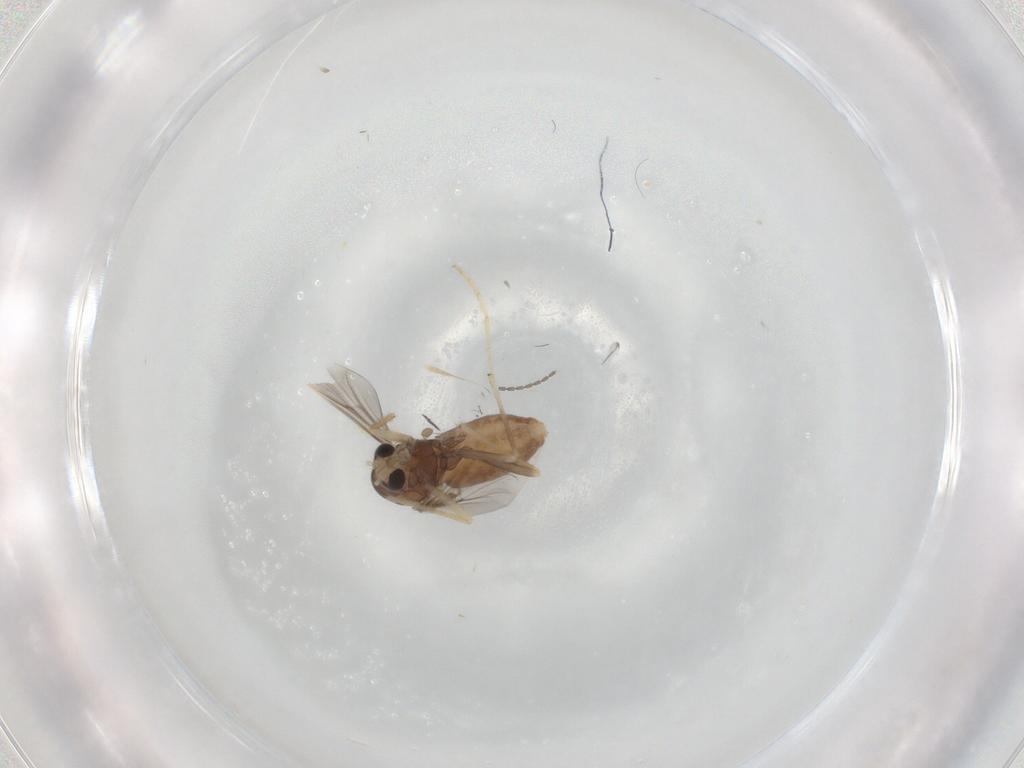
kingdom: Animalia
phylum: Arthropoda
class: Insecta
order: Diptera
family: Chironomidae
